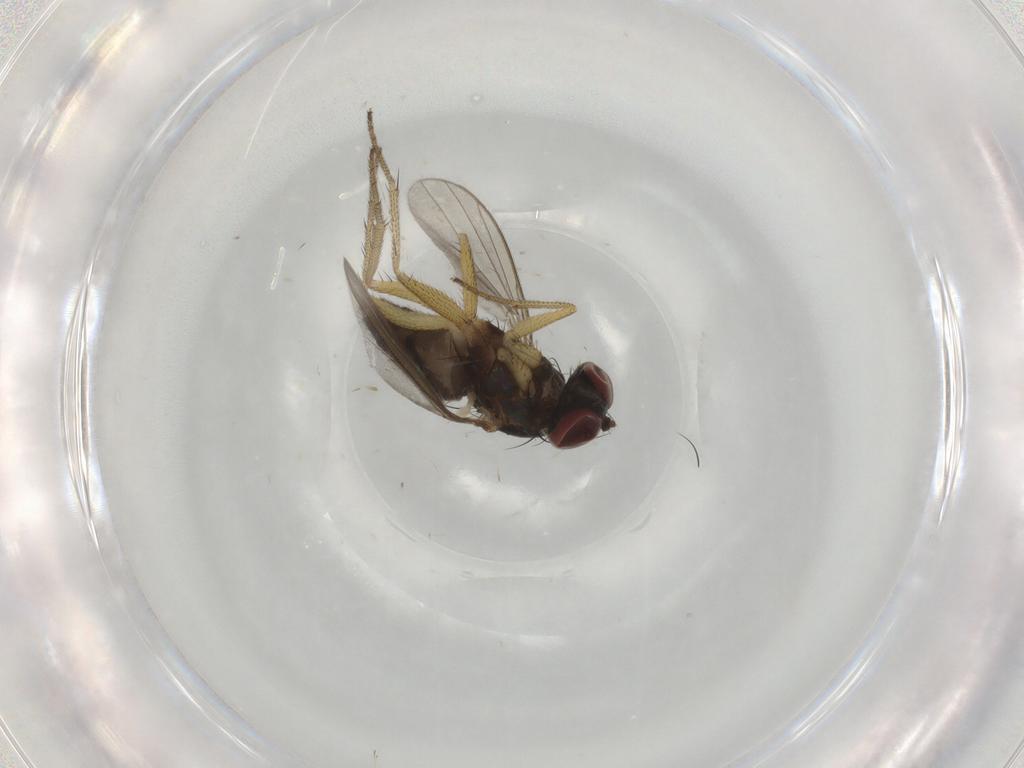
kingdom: Animalia
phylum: Arthropoda
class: Insecta
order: Diptera
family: Ceratopogonidae
